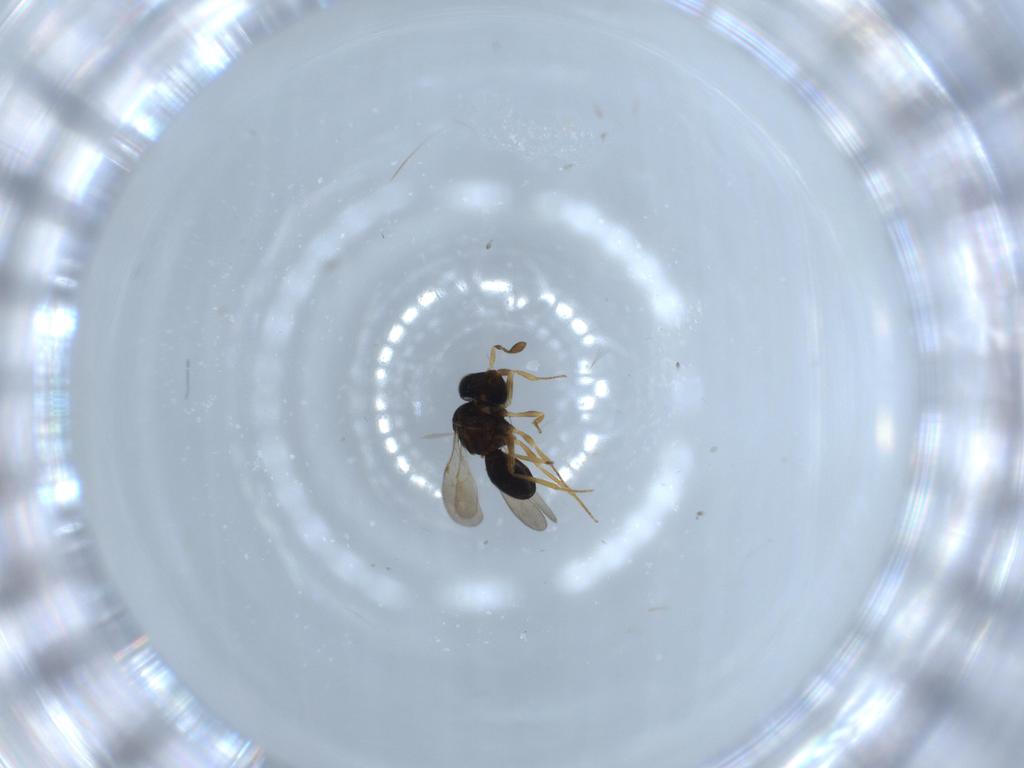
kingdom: Animalia
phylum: Arthropoda
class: Insecta
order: Hymenoptera
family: Scelionidae
